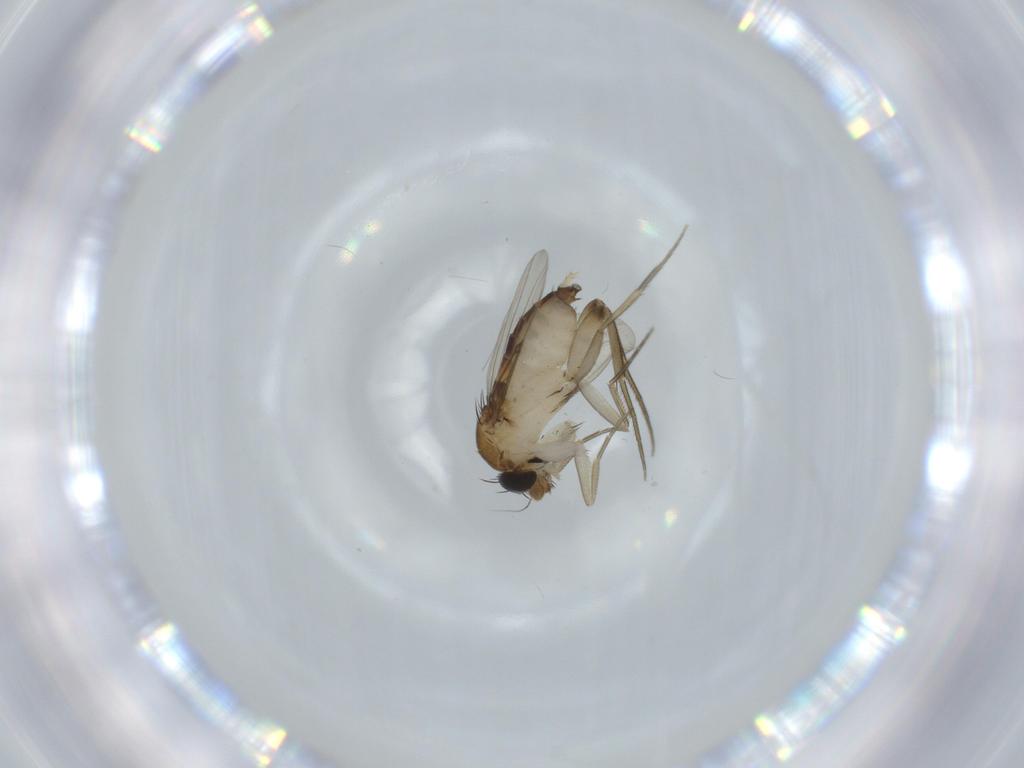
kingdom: Animalia
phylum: Arthropoda
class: Insecta
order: Diptera
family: Phoridae
